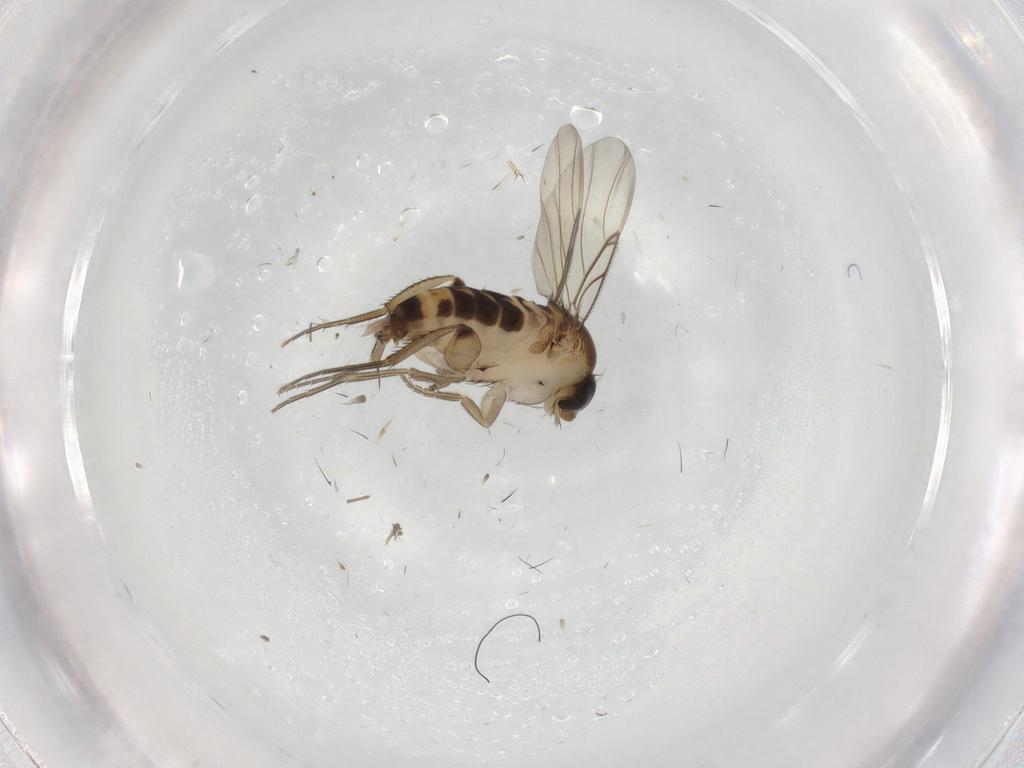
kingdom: Animalia
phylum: Arthropoda
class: Insecta
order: Diptera
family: Phoridae
